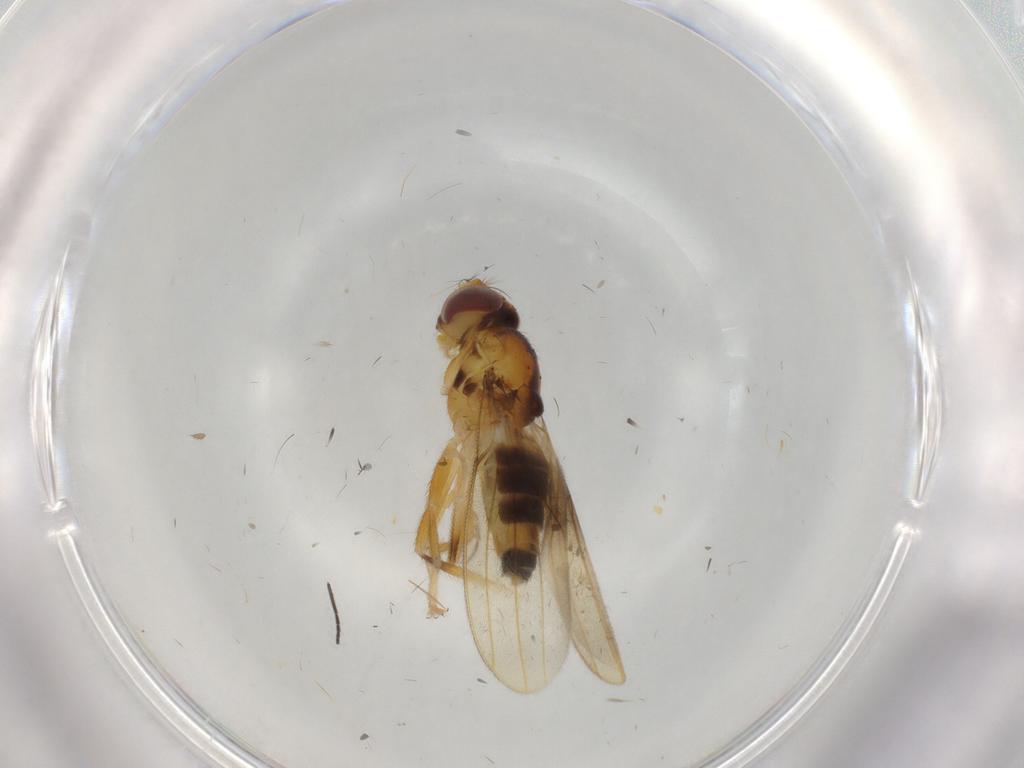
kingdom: Animalia
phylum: Arthropoda
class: Insecta
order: Diptera
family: Periscelididae
